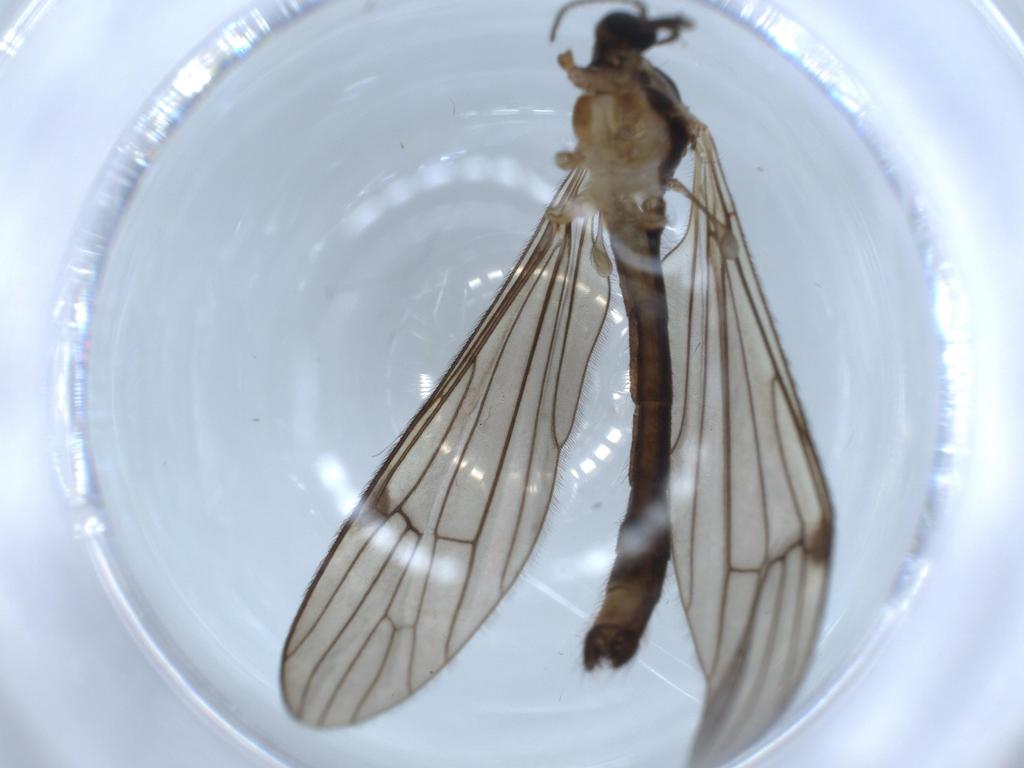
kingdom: Animalia
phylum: Arthropoda
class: Insecta
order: Diptera
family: Limoniidae
